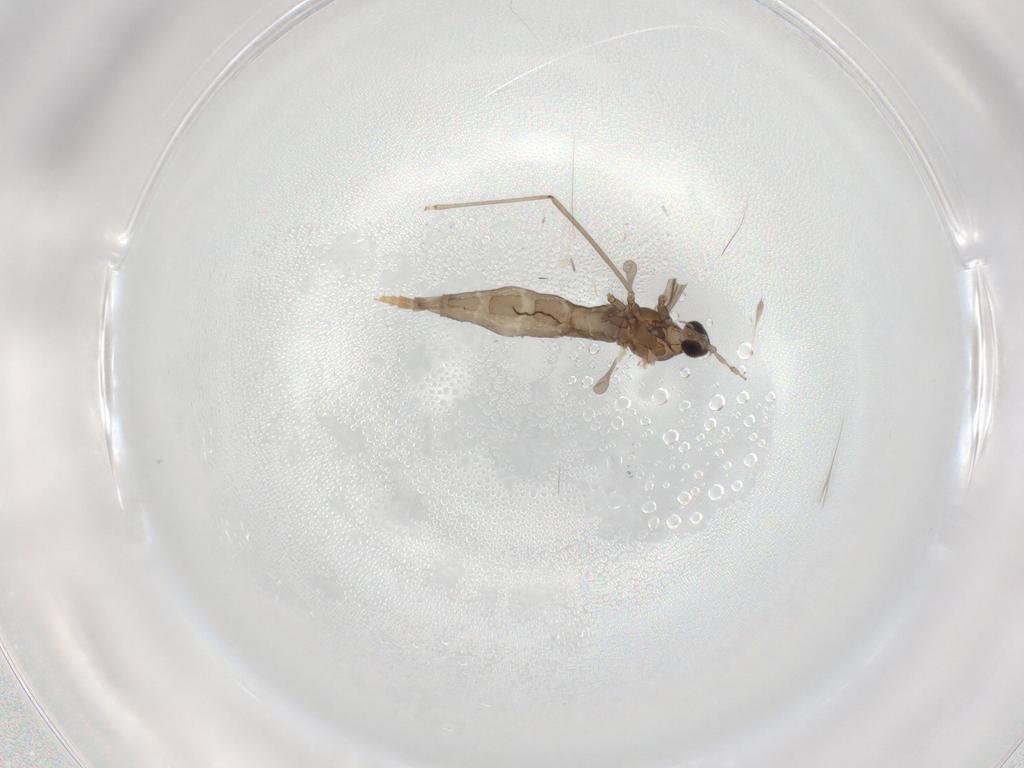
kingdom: Animalia
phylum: Arthropoda
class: Insecta
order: Diptera
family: Cecidomyiidae
